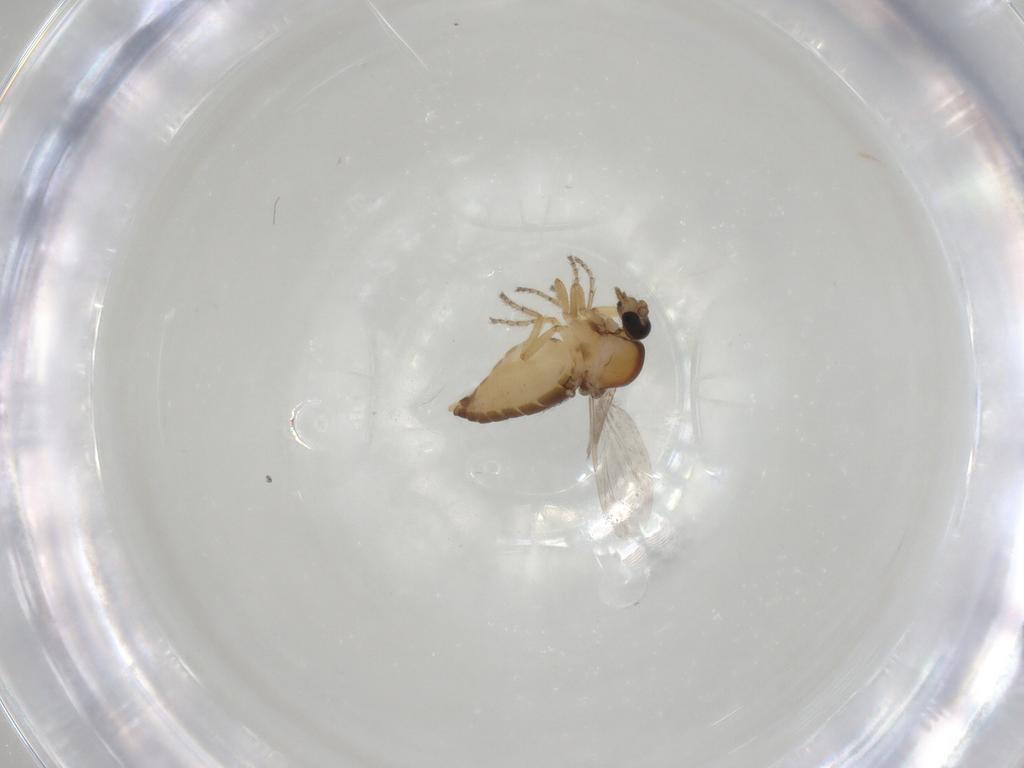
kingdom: Animalia
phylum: Arthropoda
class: Insecta
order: Diptera
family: Ceratopogonidae
